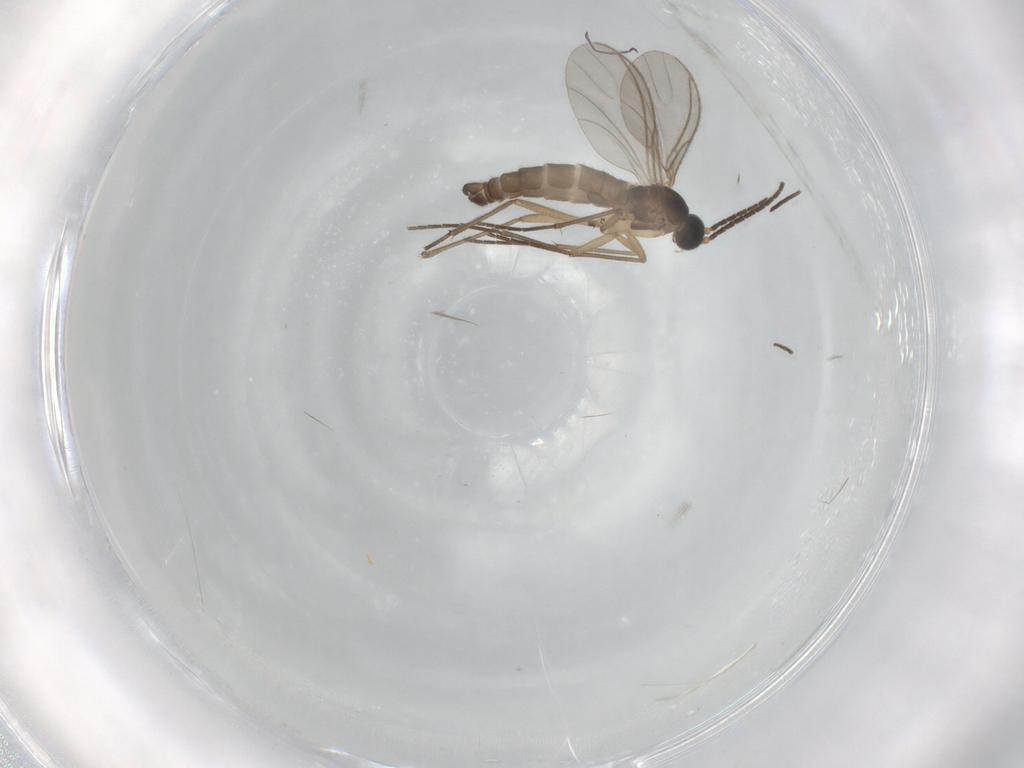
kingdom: Animalia
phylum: Arthropoda
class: Insecta
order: Diptera
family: Sciaridae
